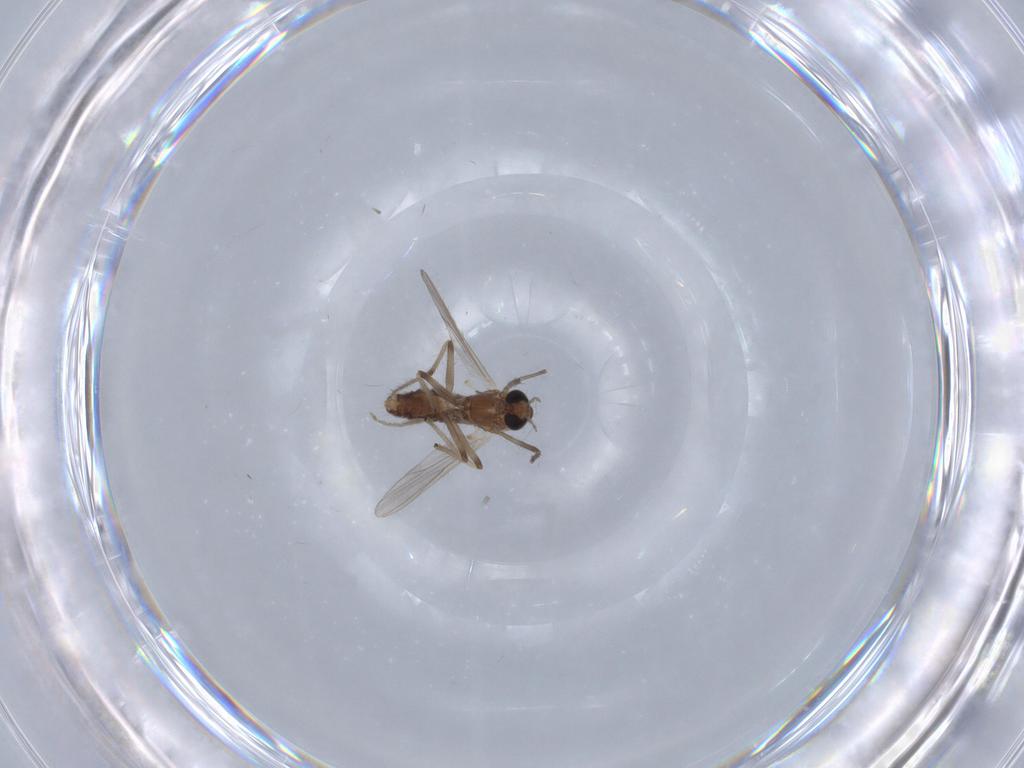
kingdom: Animalia
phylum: Arthropoda
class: Insecta
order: Diptera
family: Chironomidae
